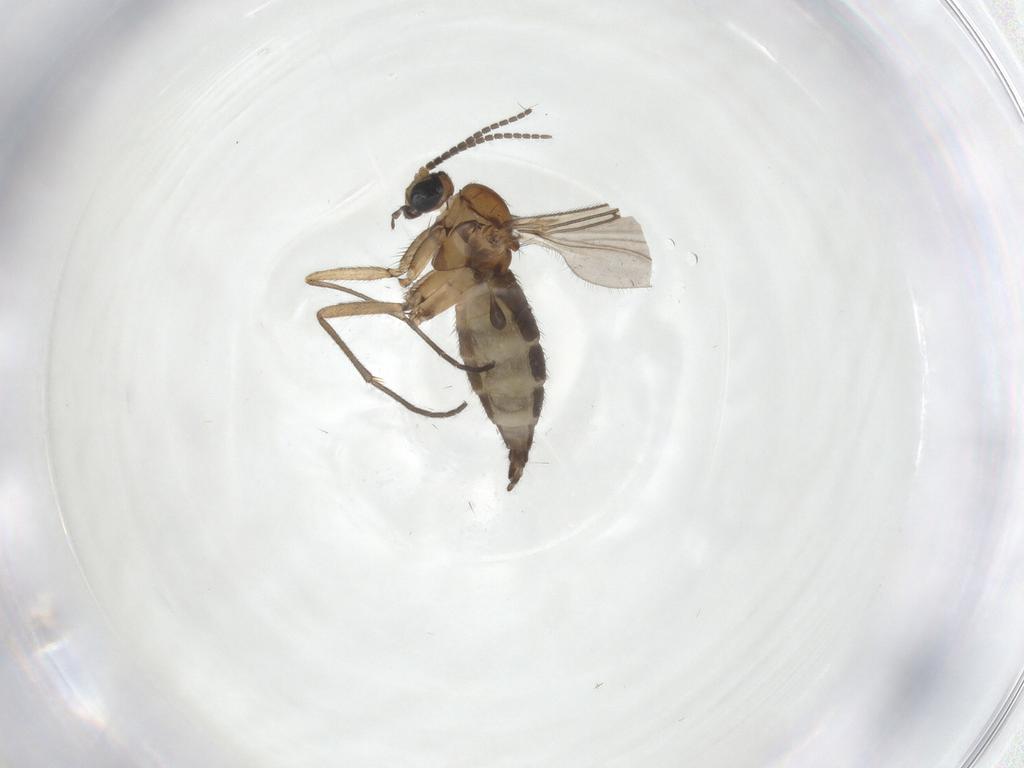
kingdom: Animalia
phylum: Arthropoda
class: Insecta
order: Diptera
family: Sciaridae
